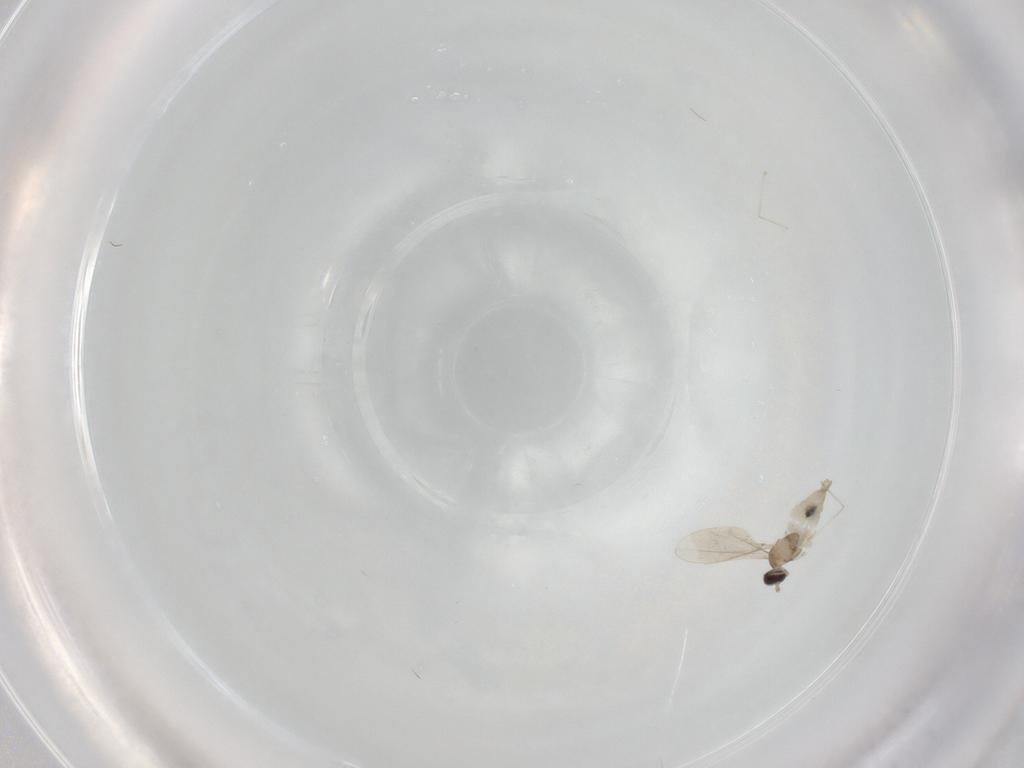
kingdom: Animalia
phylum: Arthropoda
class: Insecta
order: Diptera
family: Cecidomyiidae
